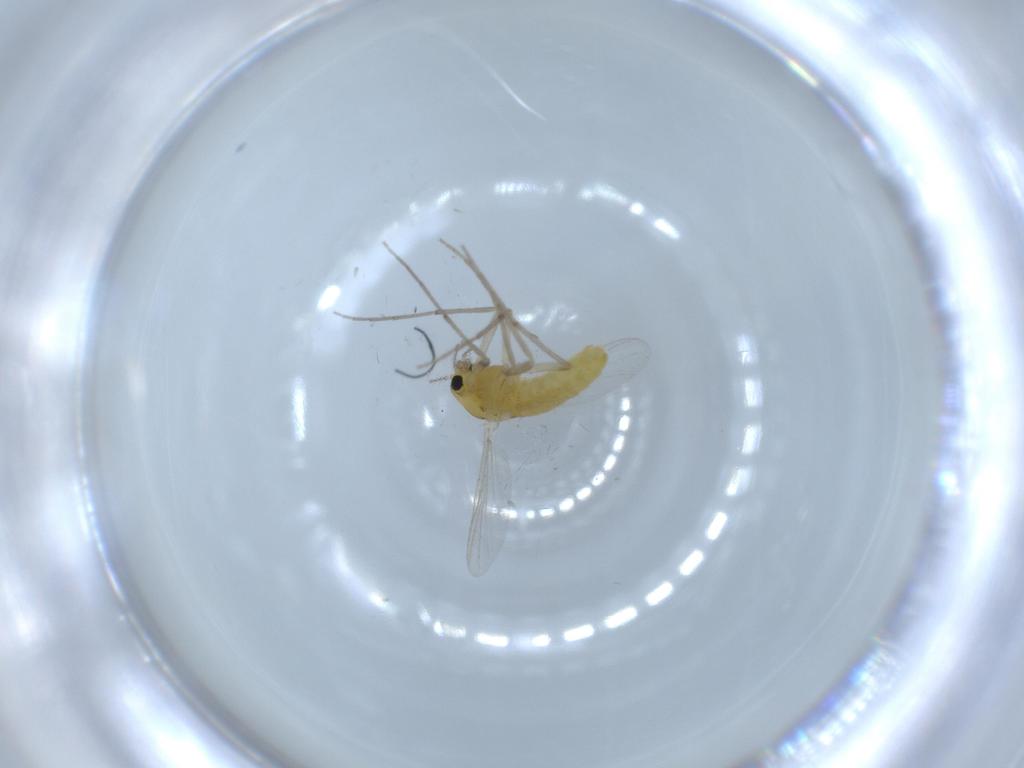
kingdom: Animalia
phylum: Arthropoda
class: Insecta
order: Diptera
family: Chironomidae
